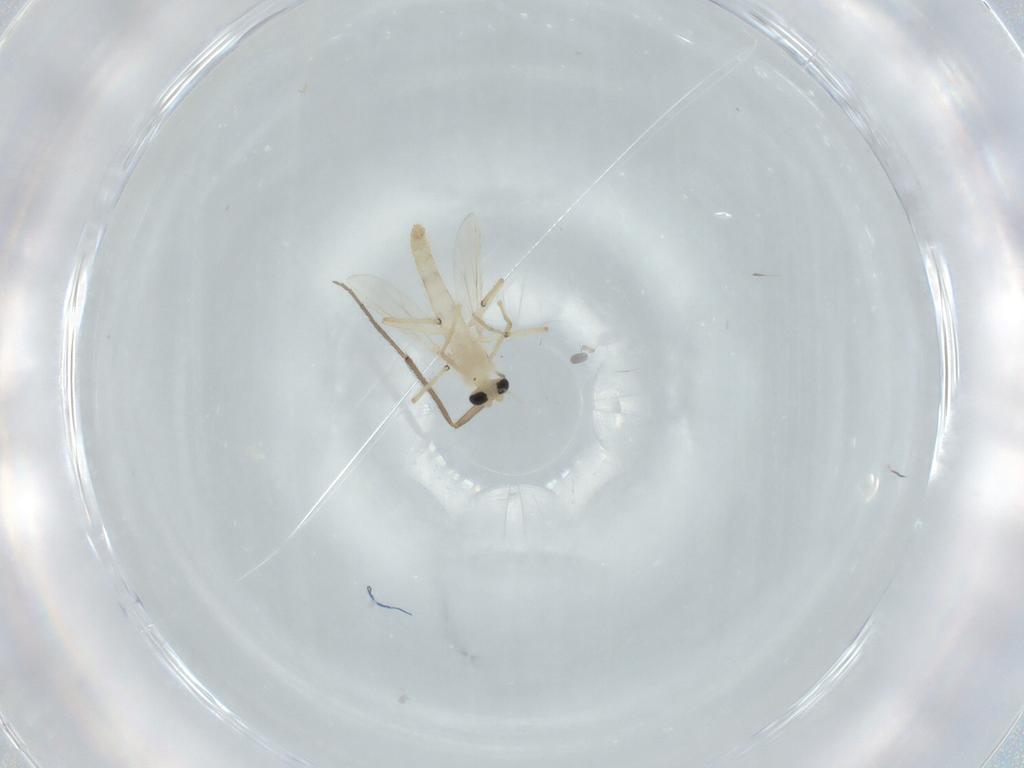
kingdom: Animalia
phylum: Arthropoda
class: Insecta
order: Diptera
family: Chironomidae
